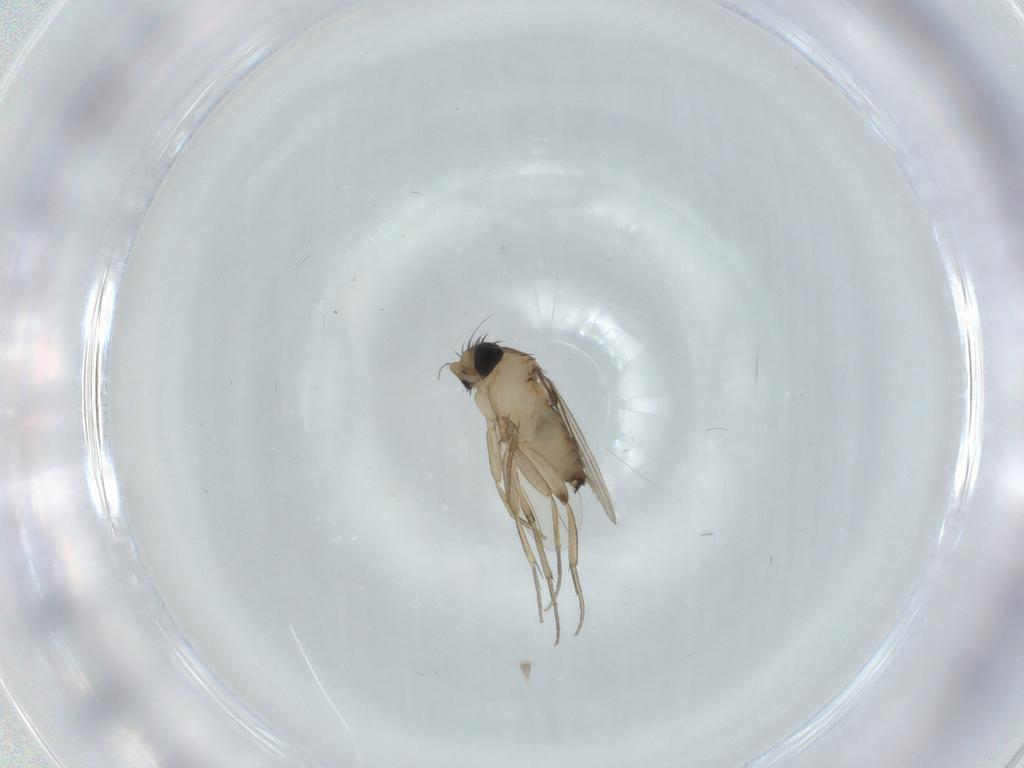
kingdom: Animalia
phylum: Arthropoda
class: Insecta
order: Diptera
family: Phoridae
